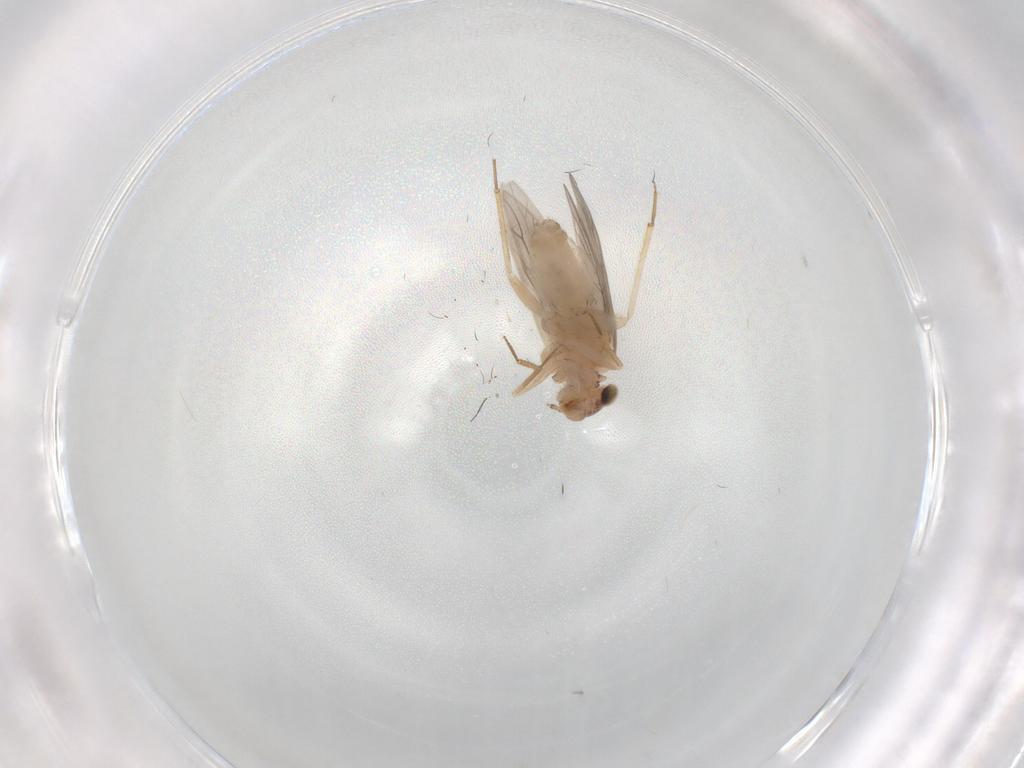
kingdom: Animalia
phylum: Arthropoda
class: Insecta
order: Psocodea
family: Lepidopsocidae
